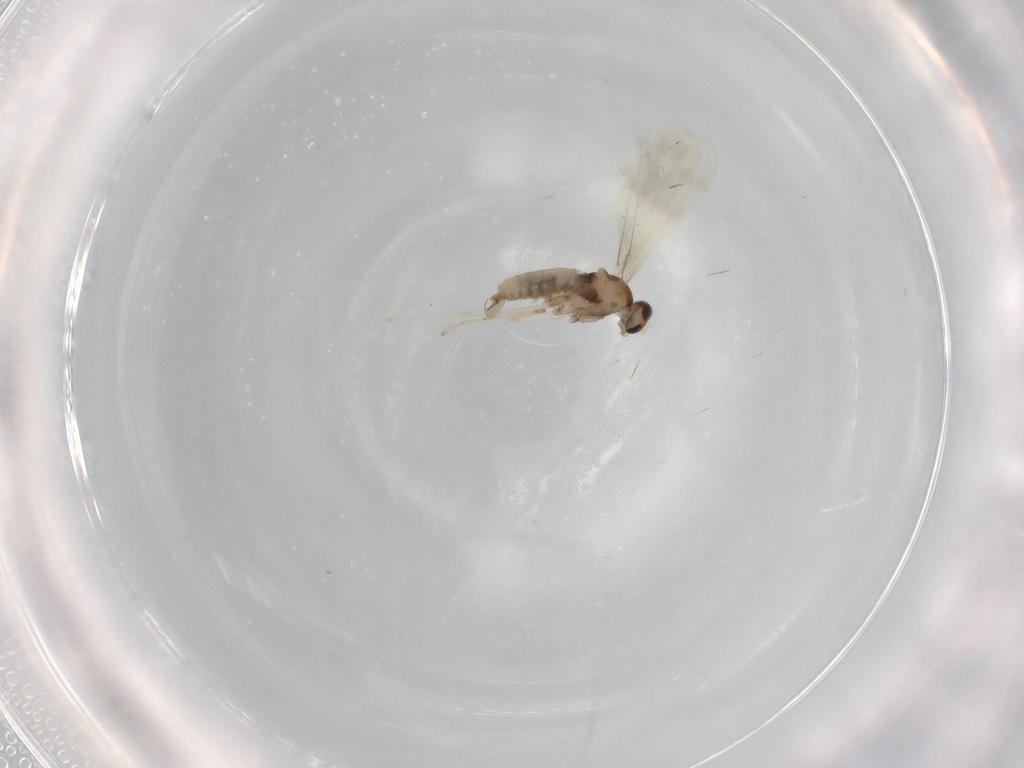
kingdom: Animalia
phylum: Arthropoda
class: Insecta
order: Diptera
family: Cecidomyiidae
